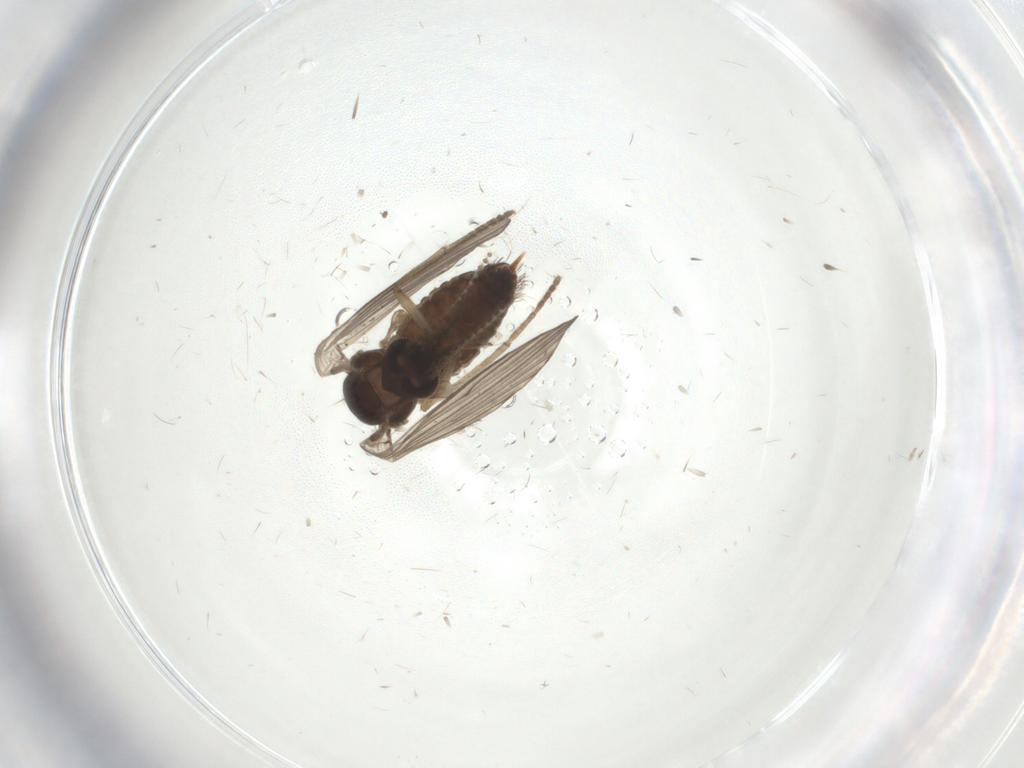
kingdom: Animalia
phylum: Arthropoda
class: Insecta
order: Diptera
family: Psychodidae
